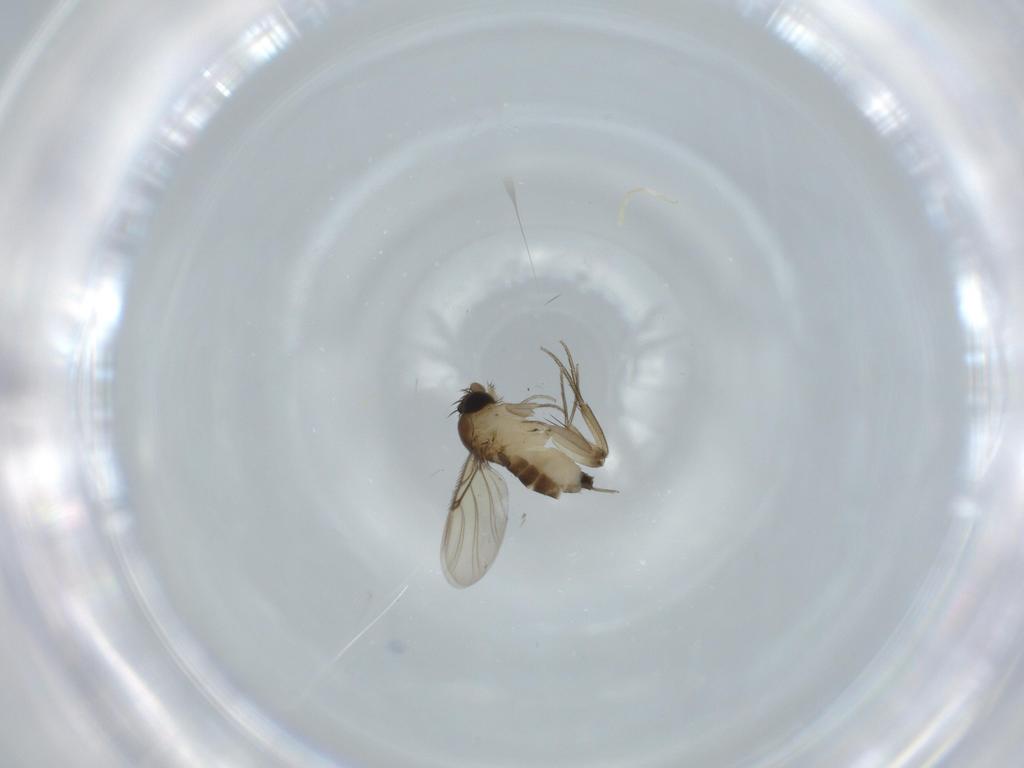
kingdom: Animalia
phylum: Arthropoda
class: Insecta
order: Diptera
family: Phoridae
